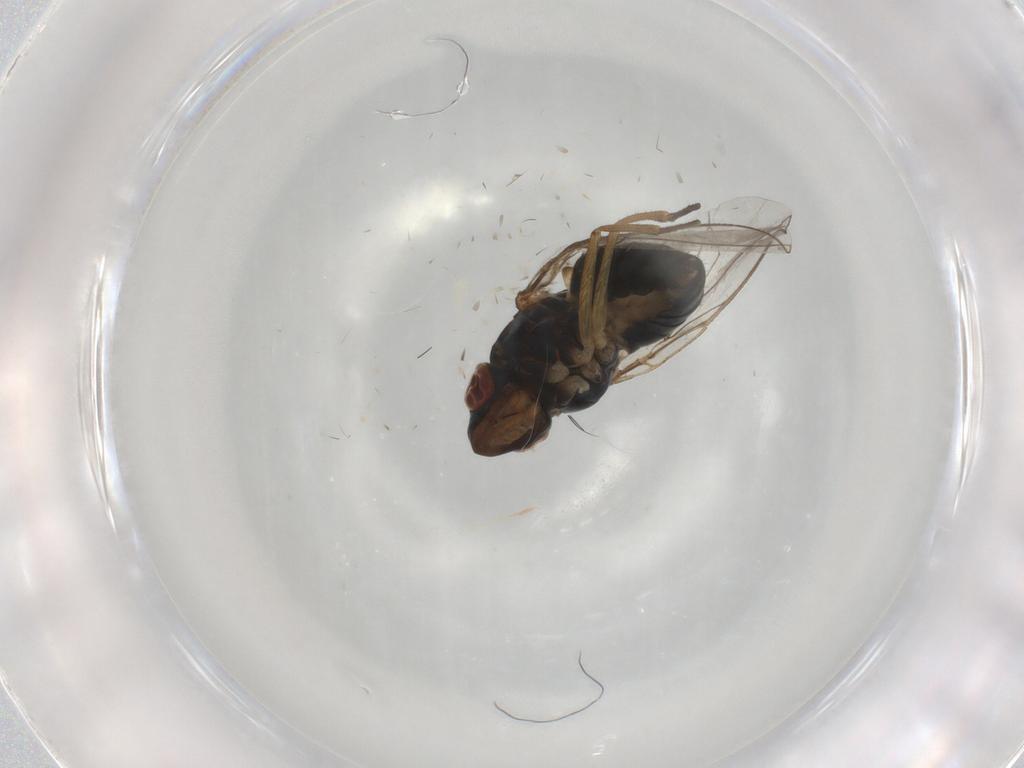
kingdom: Animalia
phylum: Arthropoda
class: Insecta
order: Diptera
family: Ephydridae
